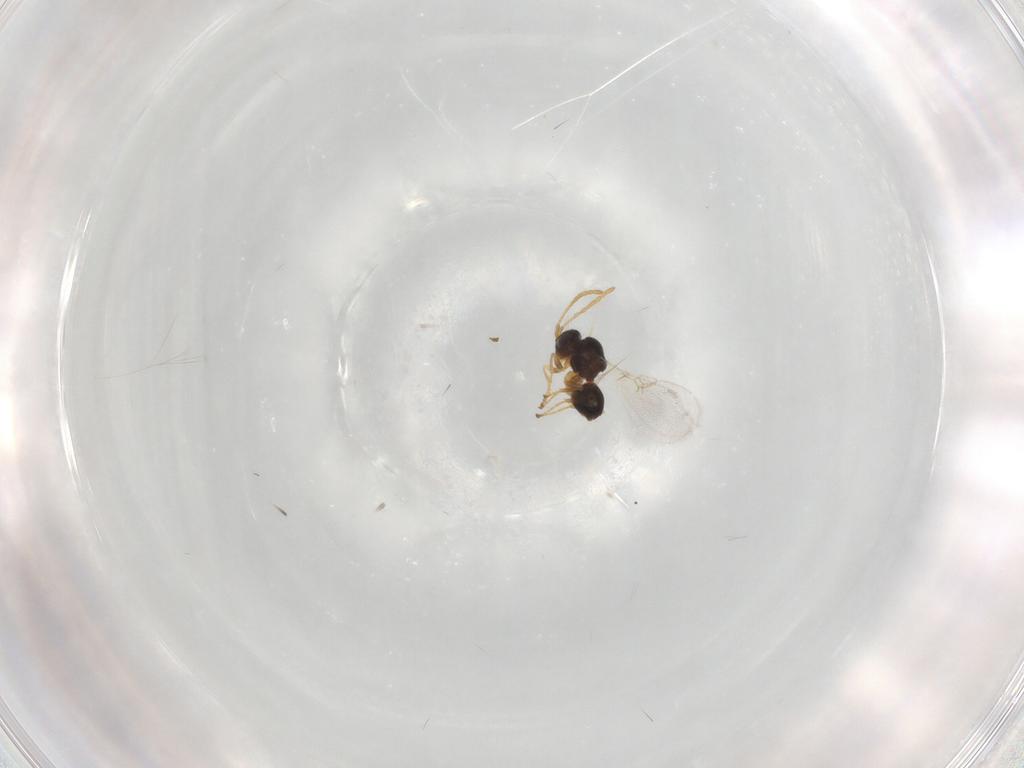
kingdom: Animalia
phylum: Arthropoda
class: Insecta
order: Hymenoptera
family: Figitidae
